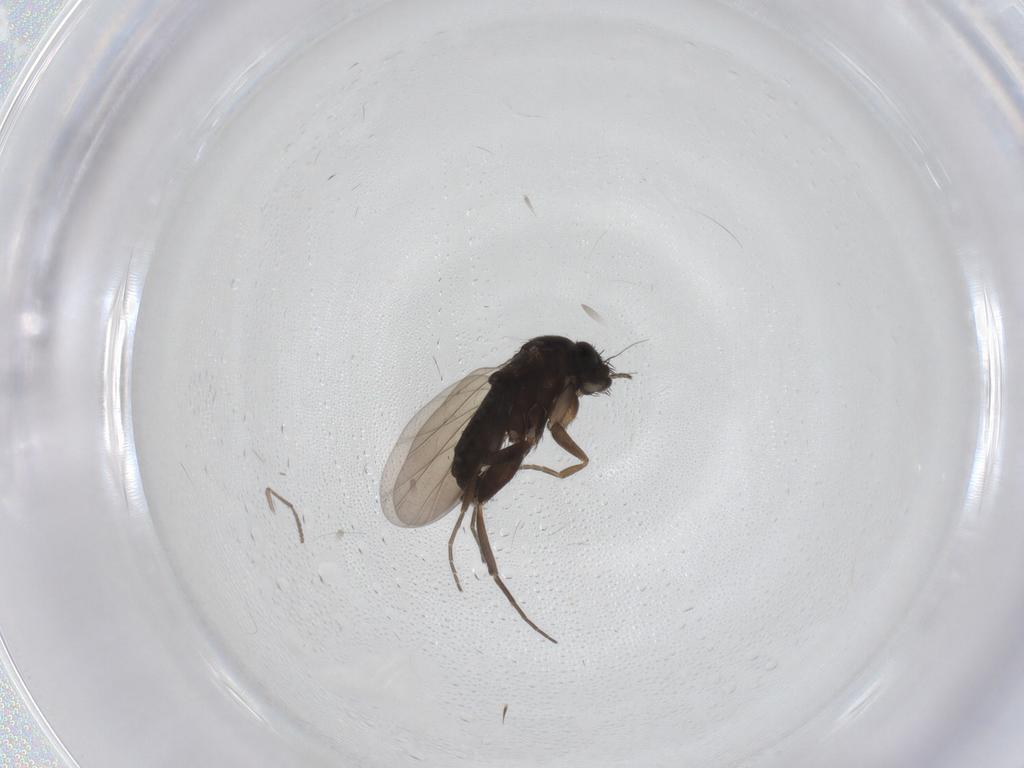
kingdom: Animalia
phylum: Arthropoda
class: Insecta
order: Diptera
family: Phoridae
